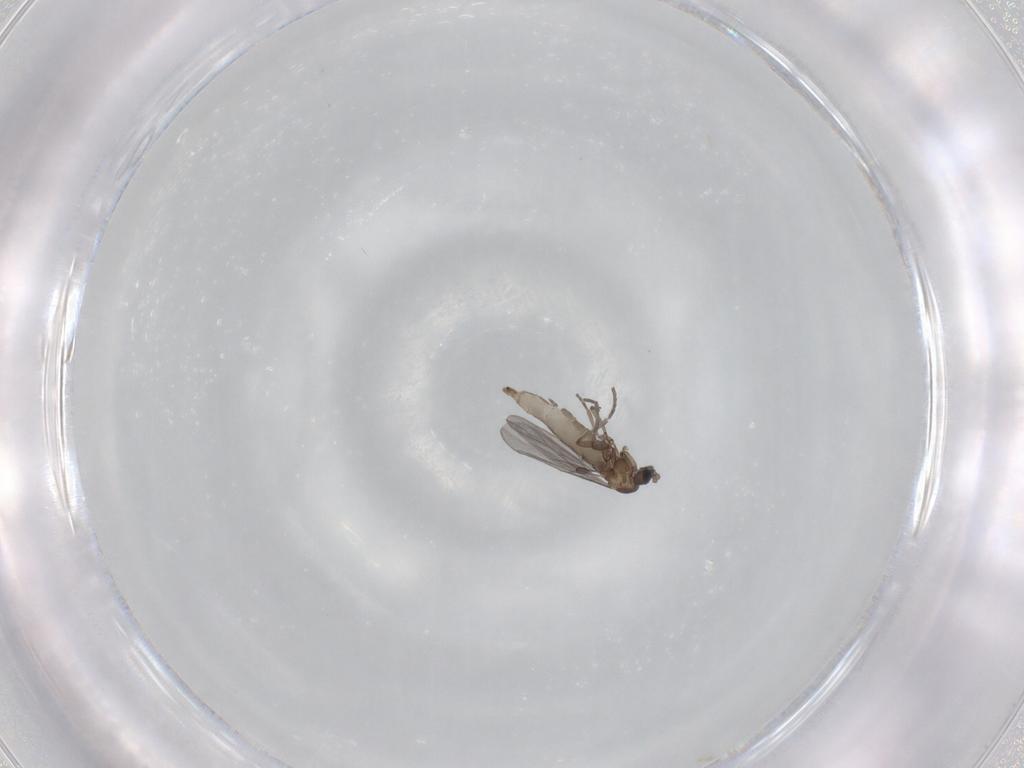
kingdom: Animalia
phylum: Arthropoda
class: Insecta
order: Diptera
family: Sciaridae
